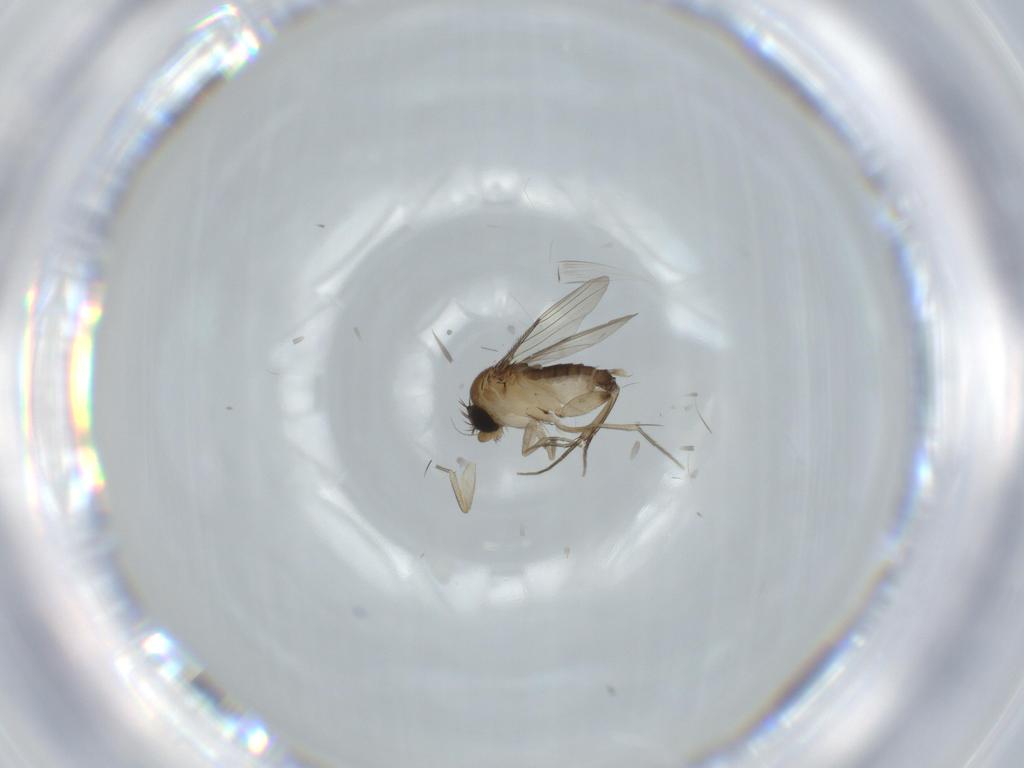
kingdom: Animalia
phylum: Arthropoda
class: Insecta
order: Diptera
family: Phoridae
